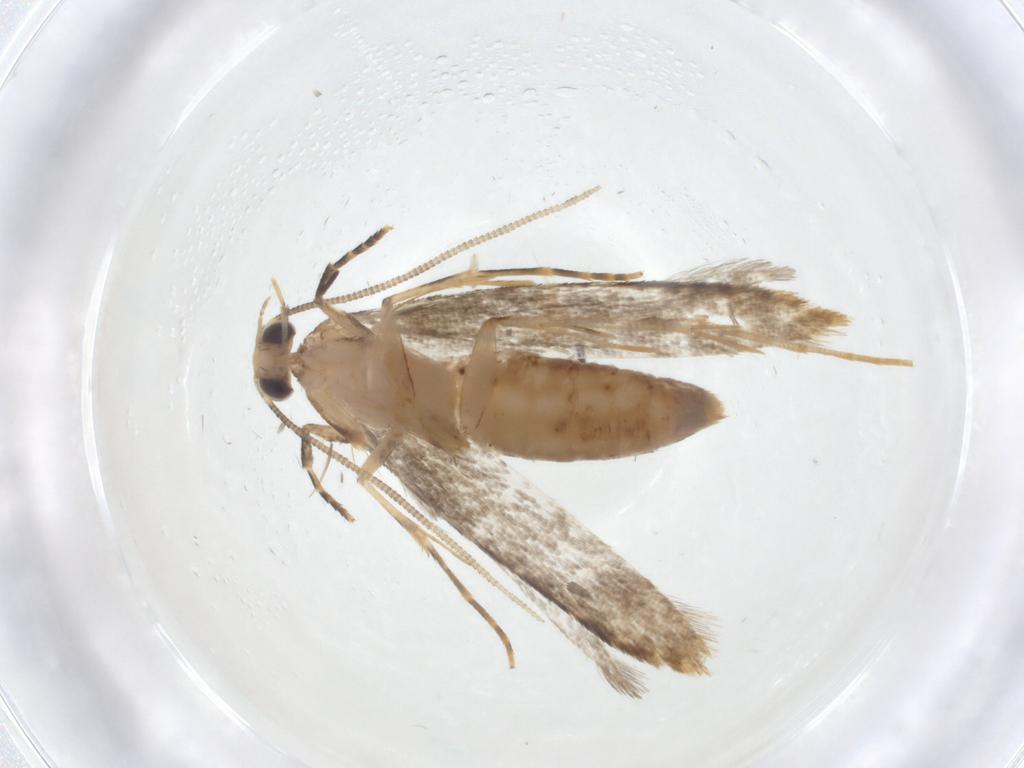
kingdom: Animalia
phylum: Arthropoda
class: Insecta
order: Lepidoptera
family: Tineidae
